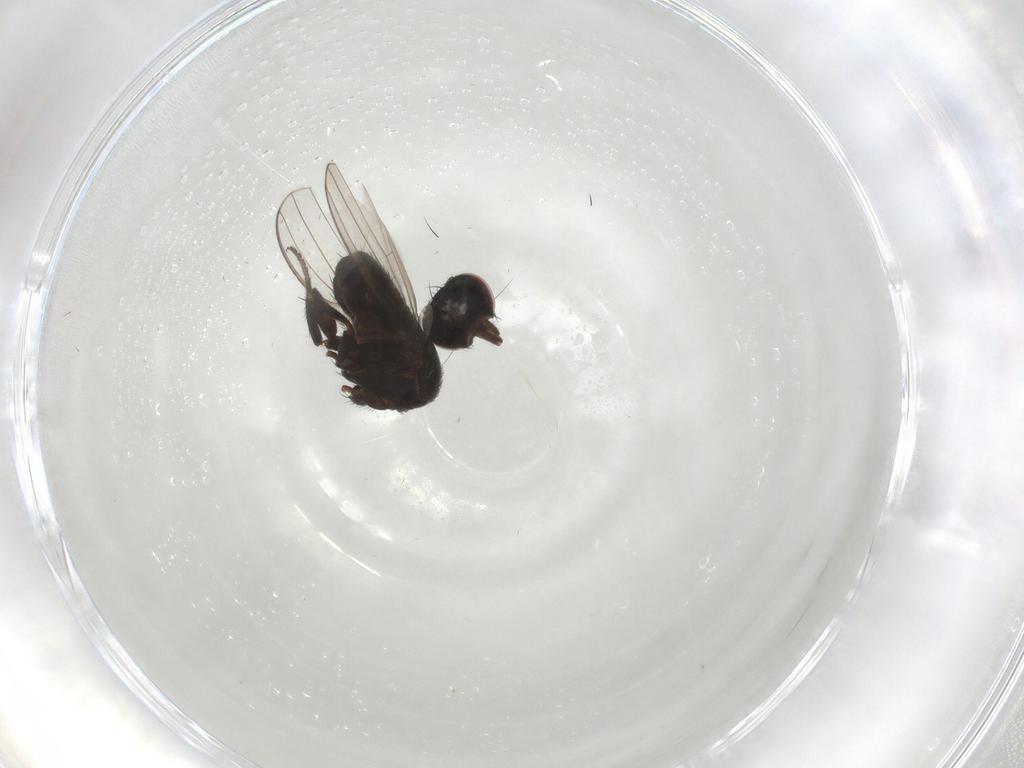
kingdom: Animalia
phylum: Arthropoda
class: Insecta
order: Diptera
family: Milichiidae
